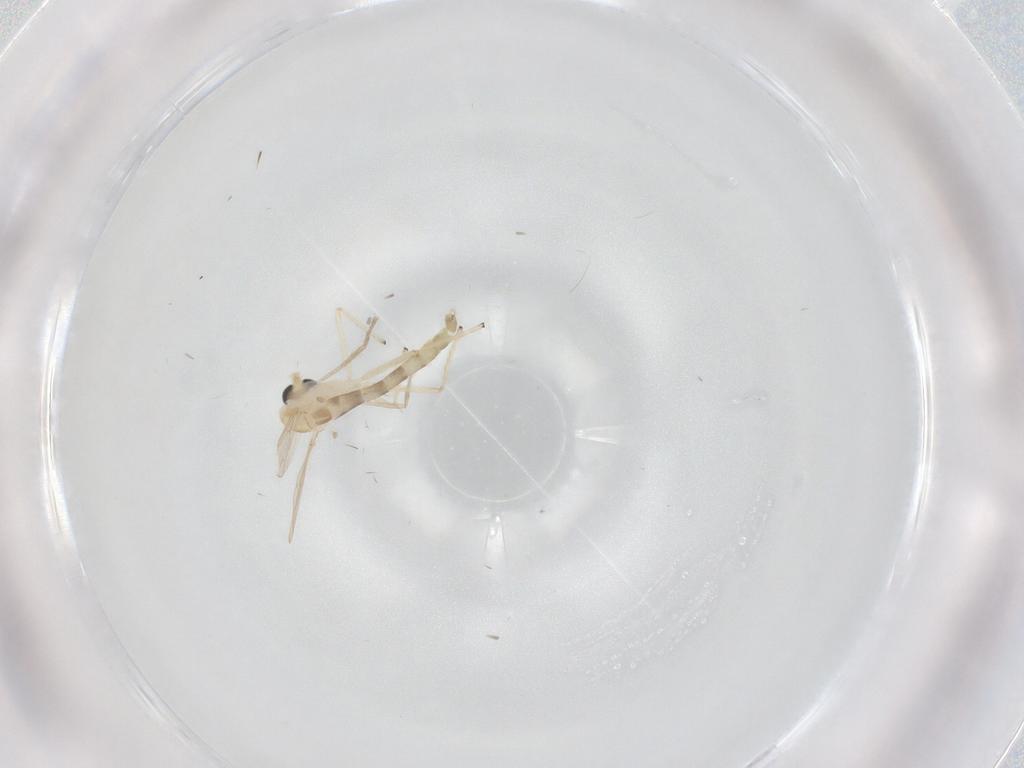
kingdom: Animalia
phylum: Arthropoda
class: Insecta
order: Diptera
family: Chironomidae
